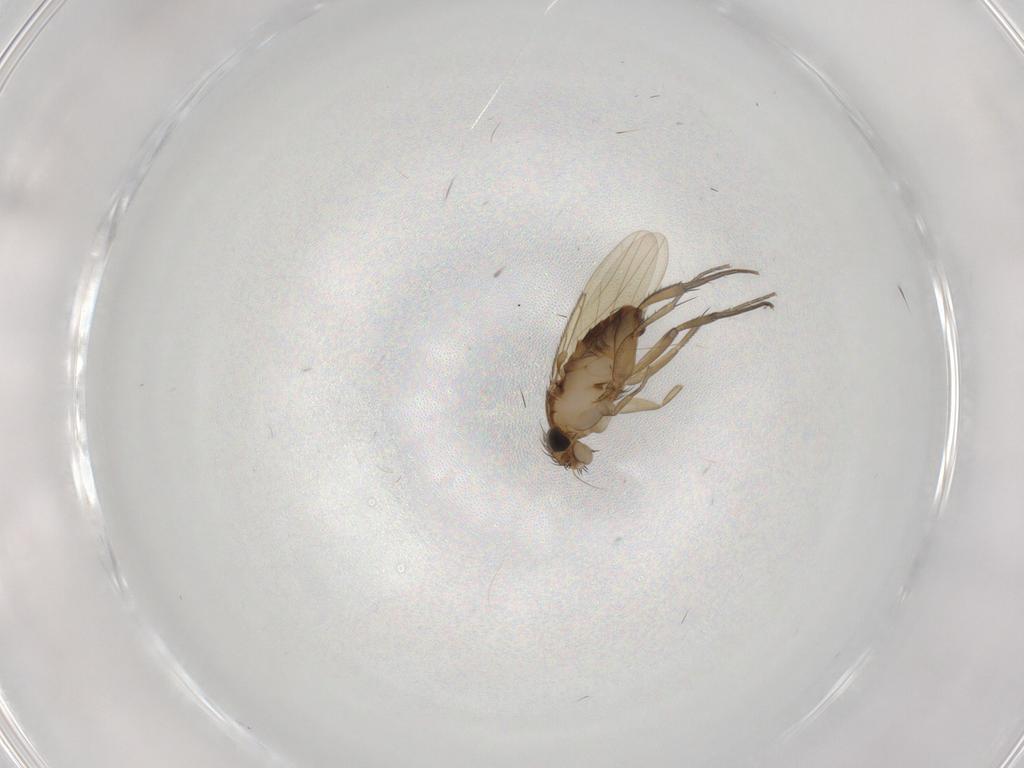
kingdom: Animalia
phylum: Arthropoda
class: Insecta
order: Diptera
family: Phoridae
